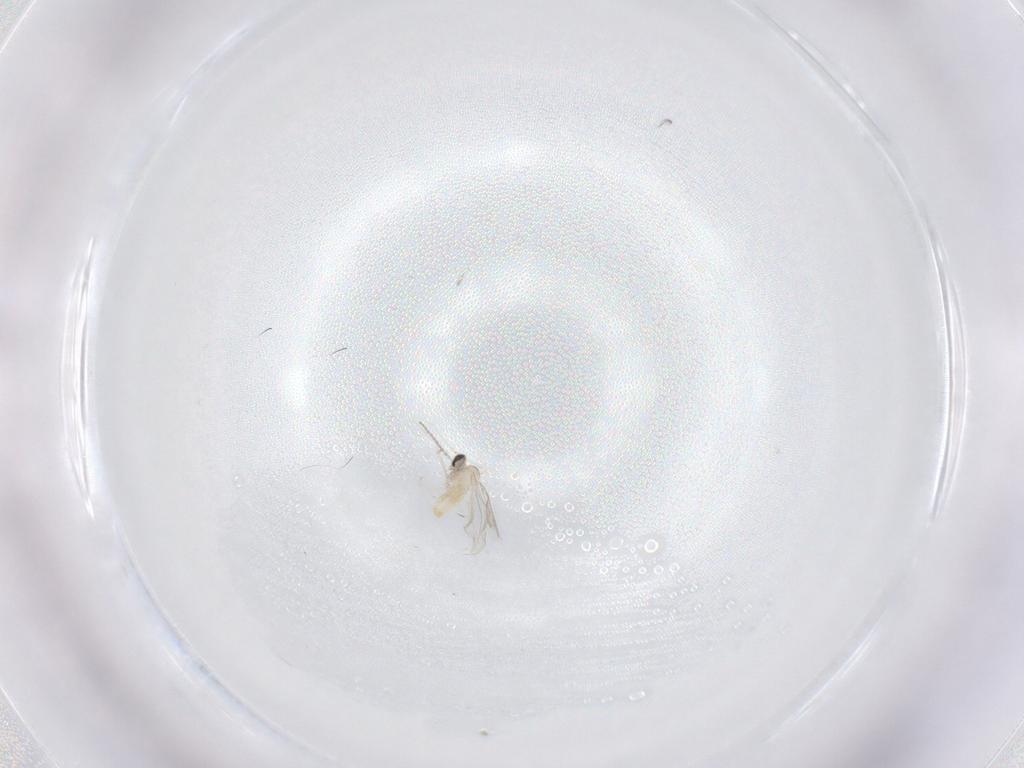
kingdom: Animalia
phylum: Arthropoda
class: Insecta
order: Diptera
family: Cecidomyiidae
